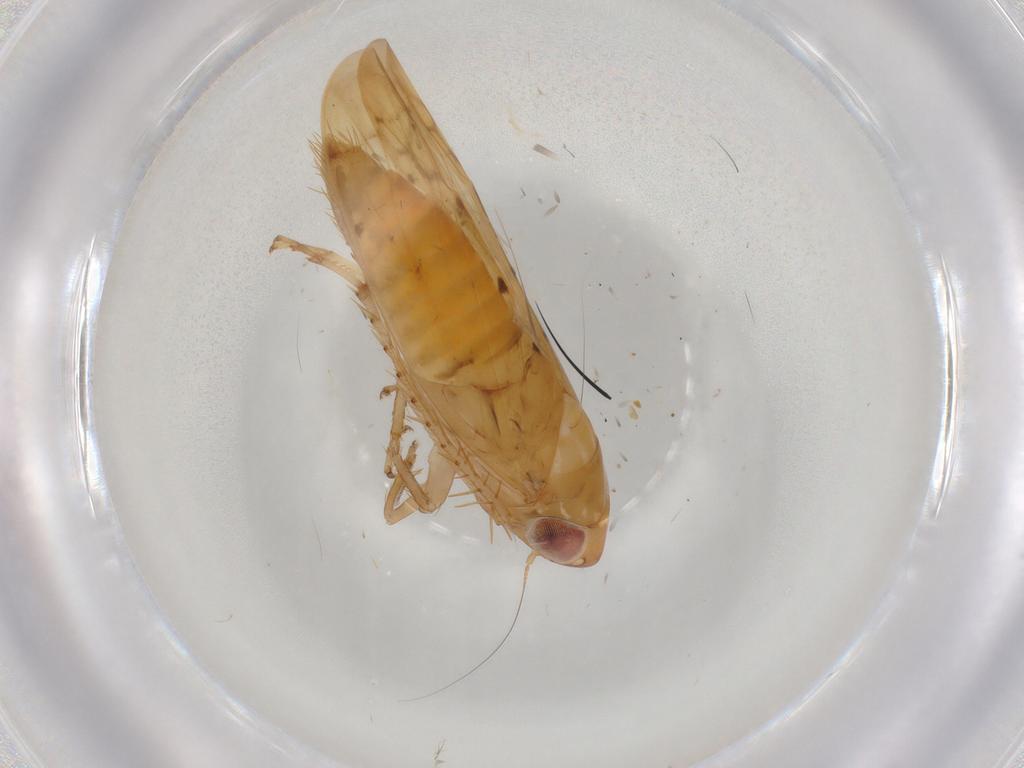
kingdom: Animalia
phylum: Arthropoda
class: Insecta
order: Hemiptera
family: Cicadellidae
